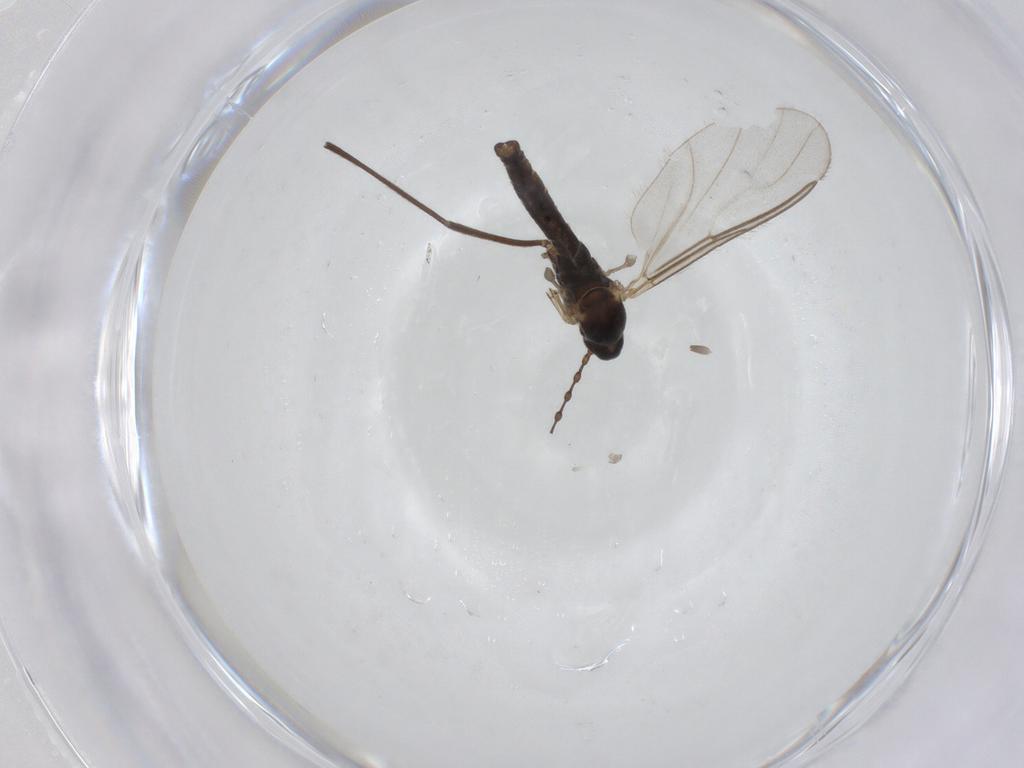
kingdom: Animalia
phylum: Arthropoda
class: Insecta
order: Diptera
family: Cecidomyiidae
